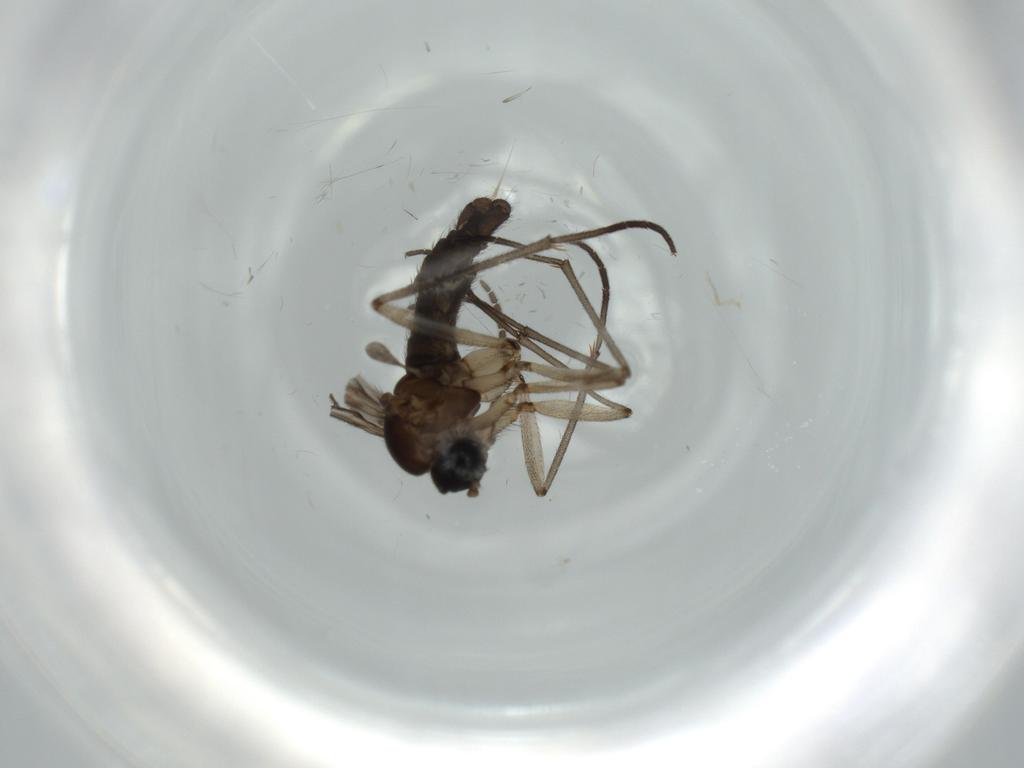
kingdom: Animalia
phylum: Arthropoda
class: Insecta
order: Diptera
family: Sciaridae
